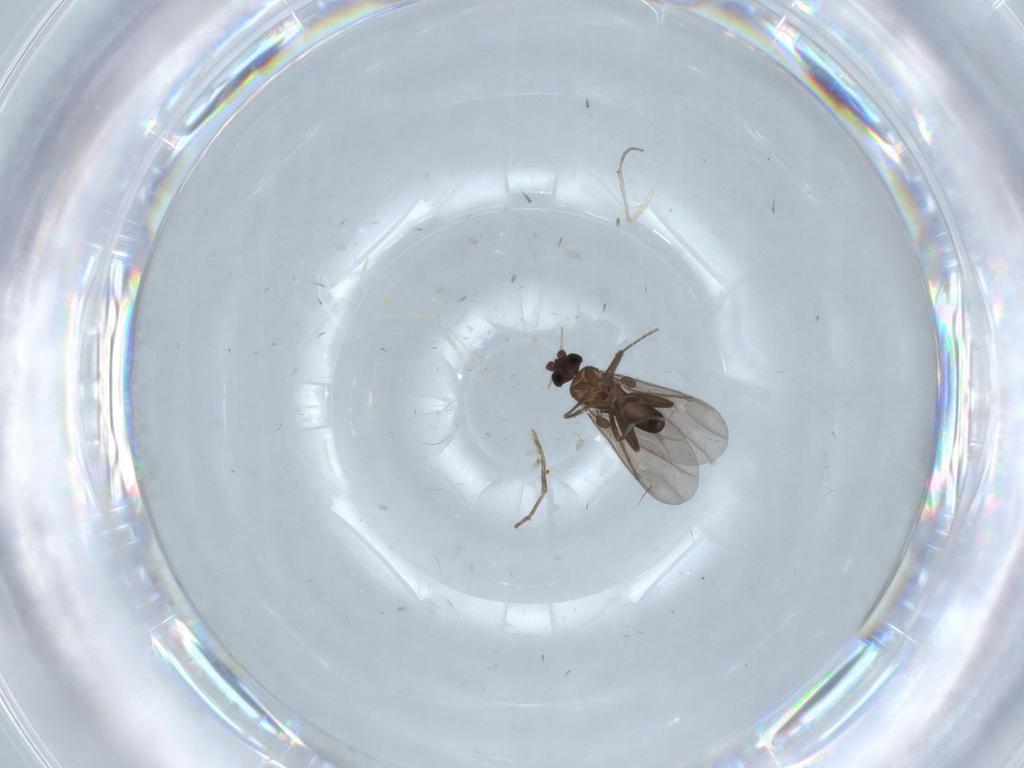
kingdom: Animalia
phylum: Arthropoda
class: Insecta
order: Diptera
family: Phoridae
